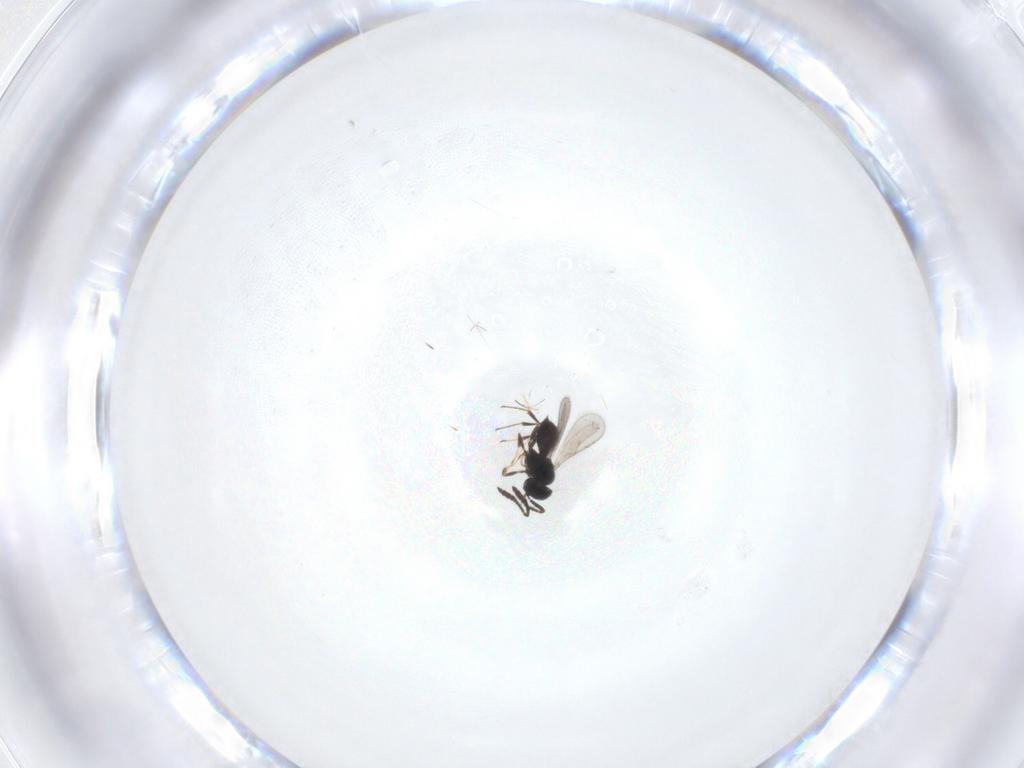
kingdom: Animalia
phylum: Arthropoda
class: Insecta
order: Hymenoptera
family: Scelionidae
